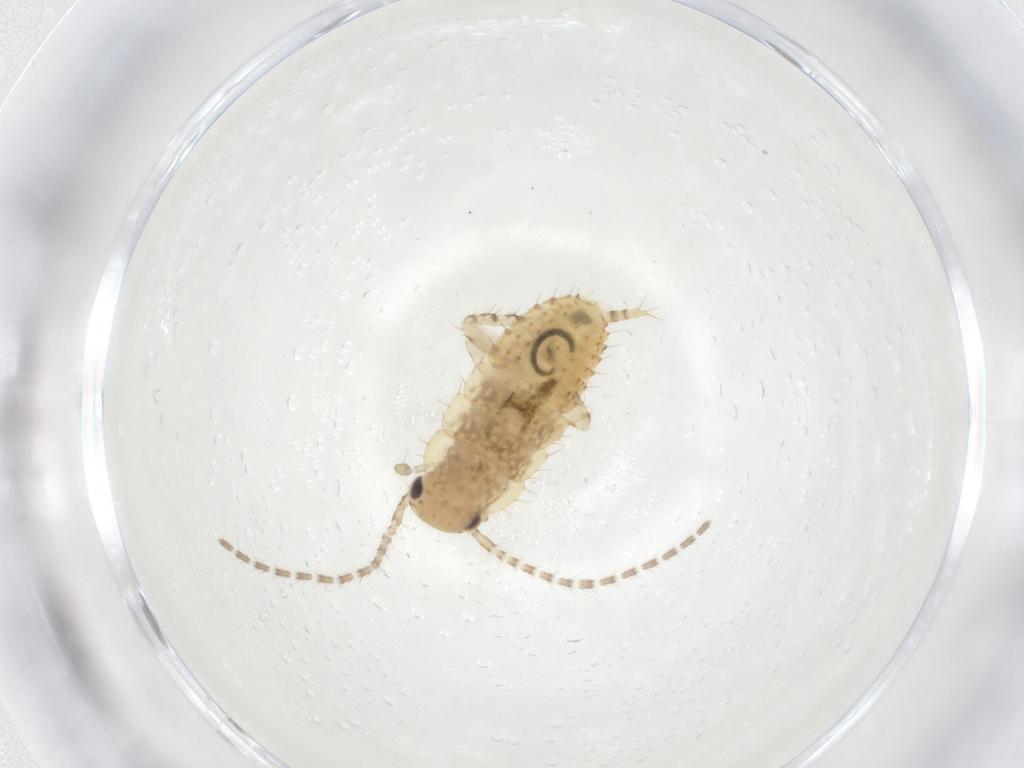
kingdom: Animalia
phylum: Arthropoda
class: Insecta
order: Blattodea
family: Ectobiidae
